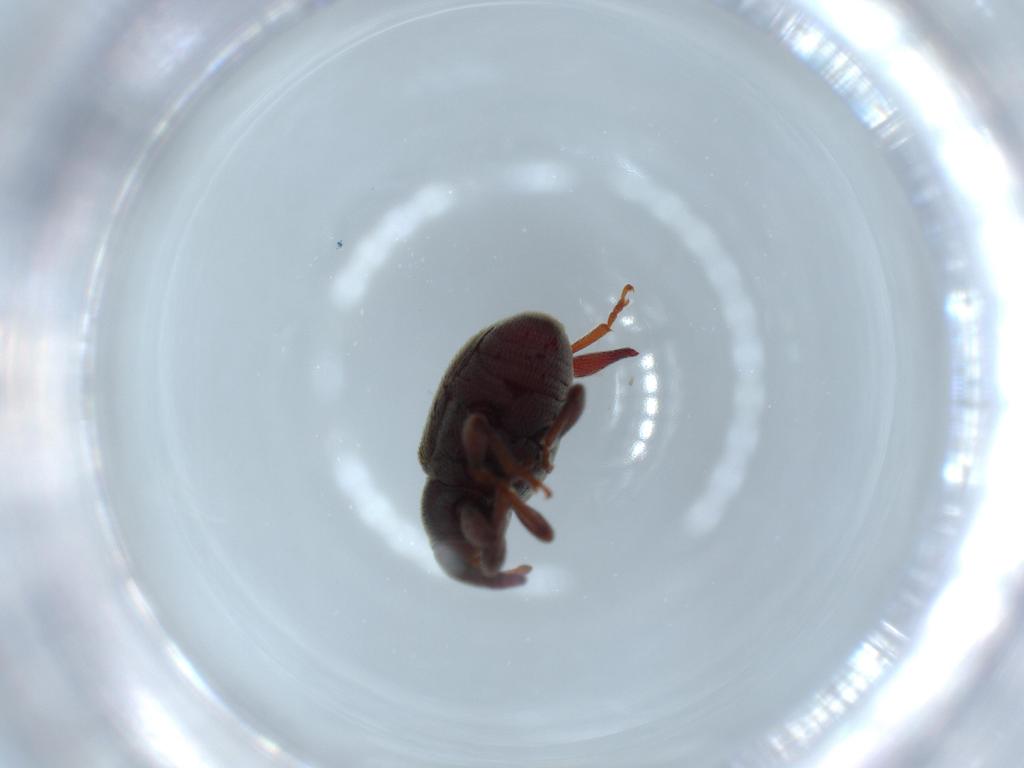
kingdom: Animalia
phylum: Arthropoda
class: Insecta
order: Coleoptera
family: Curculionidae
